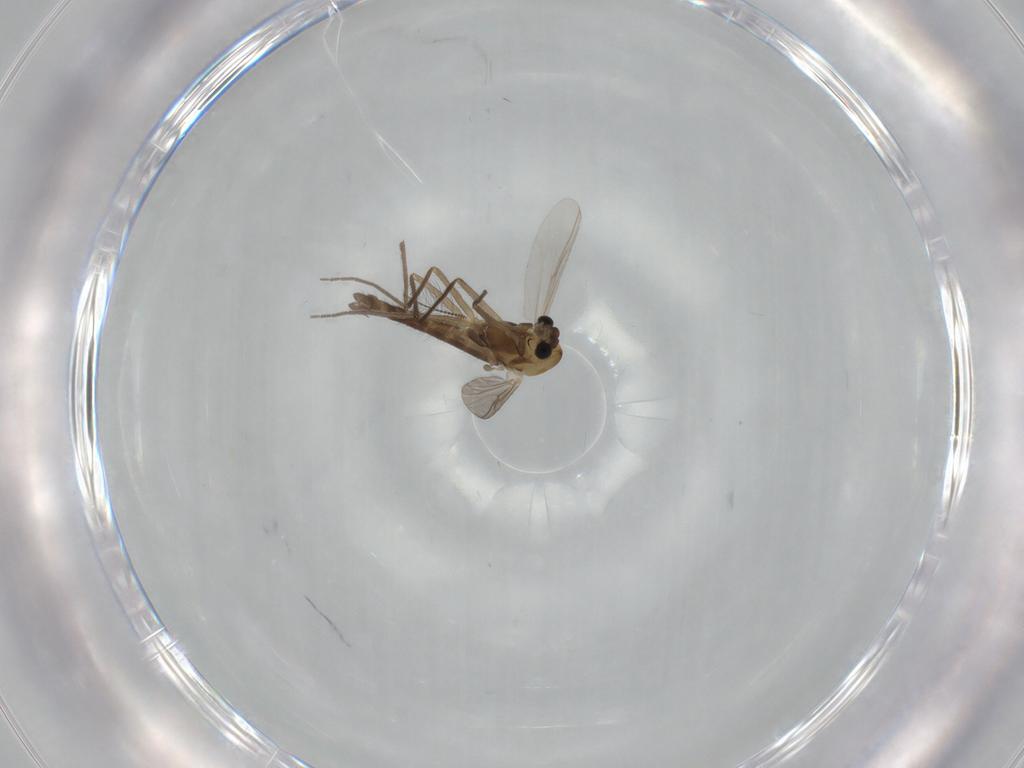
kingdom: Animalia
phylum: Arthropoda
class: Insecta
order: Diptera
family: Chironomidae
